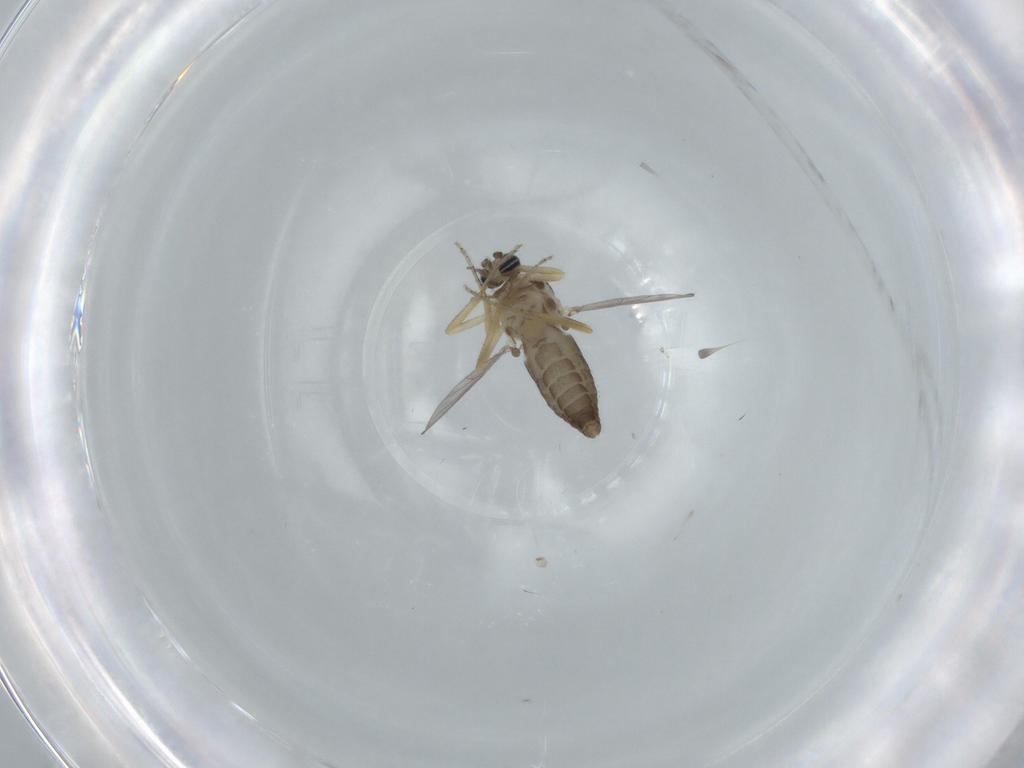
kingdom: Animalia
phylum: Arthropoda
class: Insecta
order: Diptera
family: Ceratopogonidae
